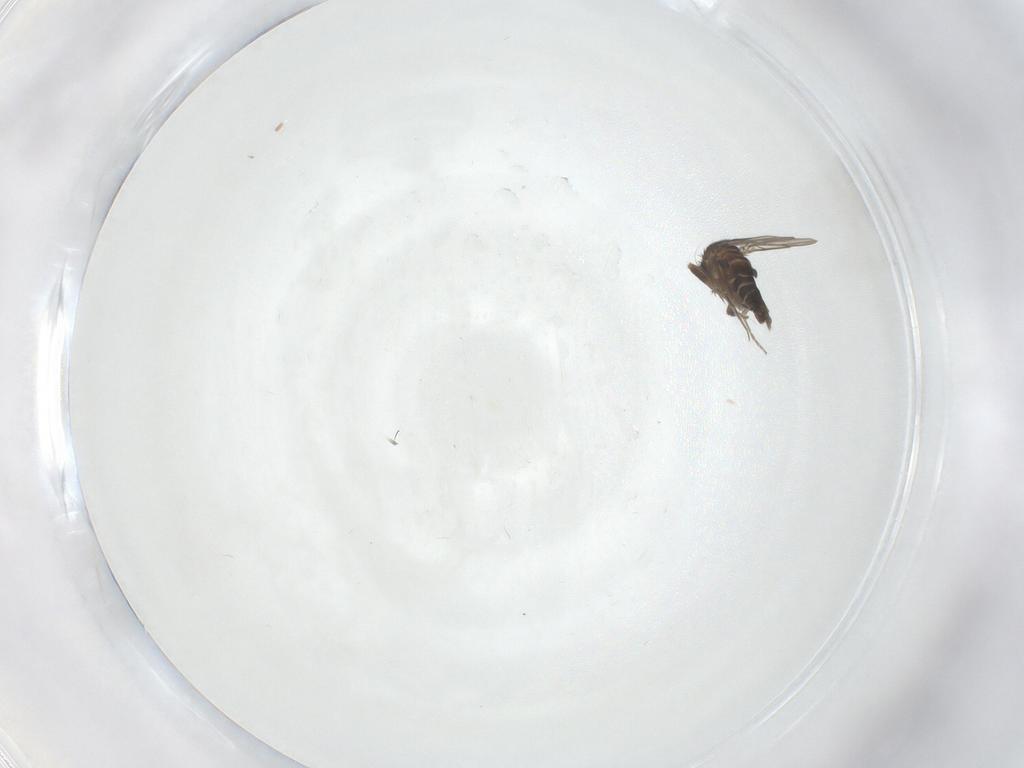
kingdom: Animalia
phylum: Arthropoda
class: Insecta
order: Diptera
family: Phoridae
